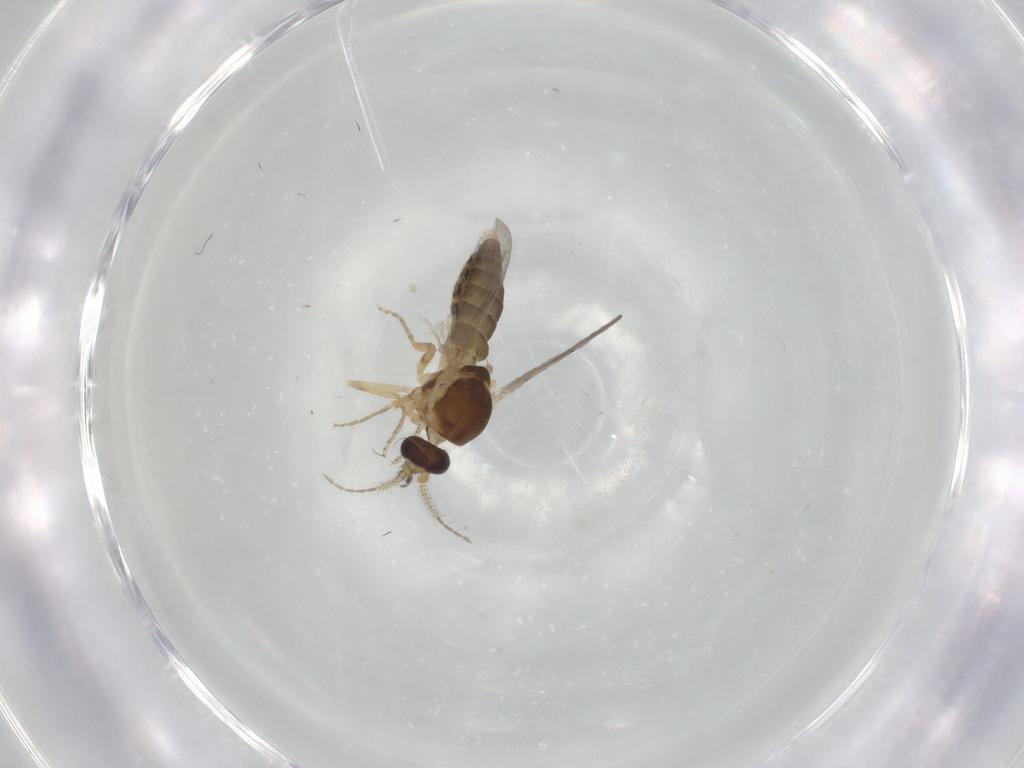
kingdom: Animalia
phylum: Arthropoda
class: Insecta
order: Diptera
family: Ceratopogonidae
